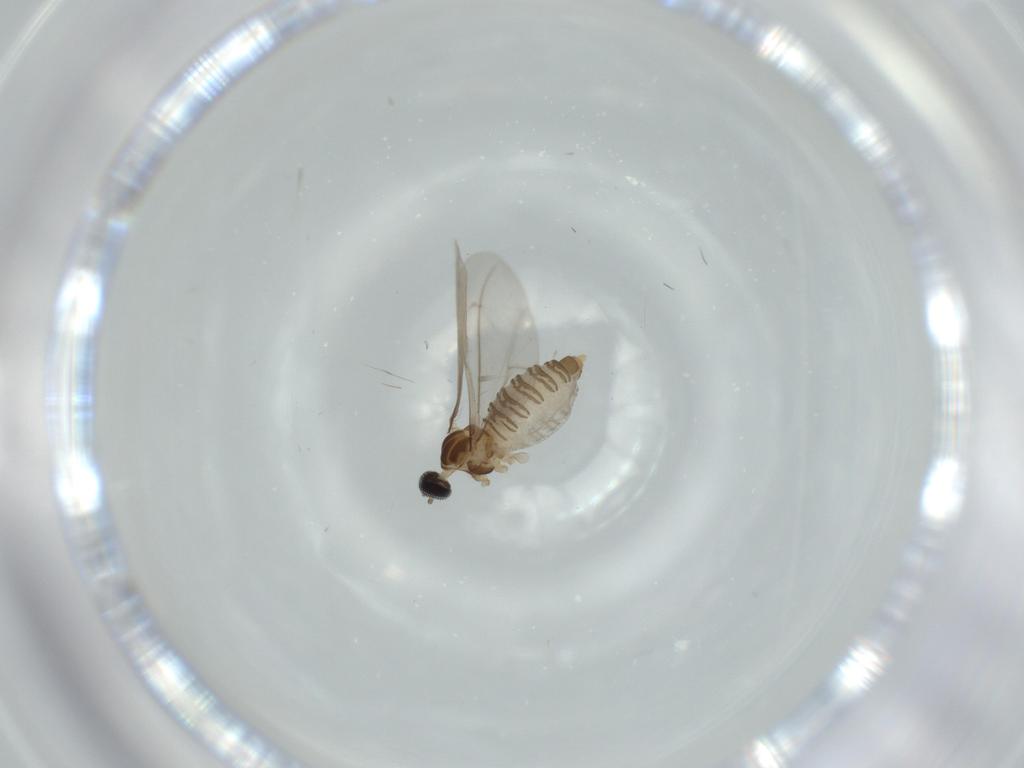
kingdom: Animalia
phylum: Arthropoda
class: Insecta
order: Diptera
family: Cecidomyiidae
